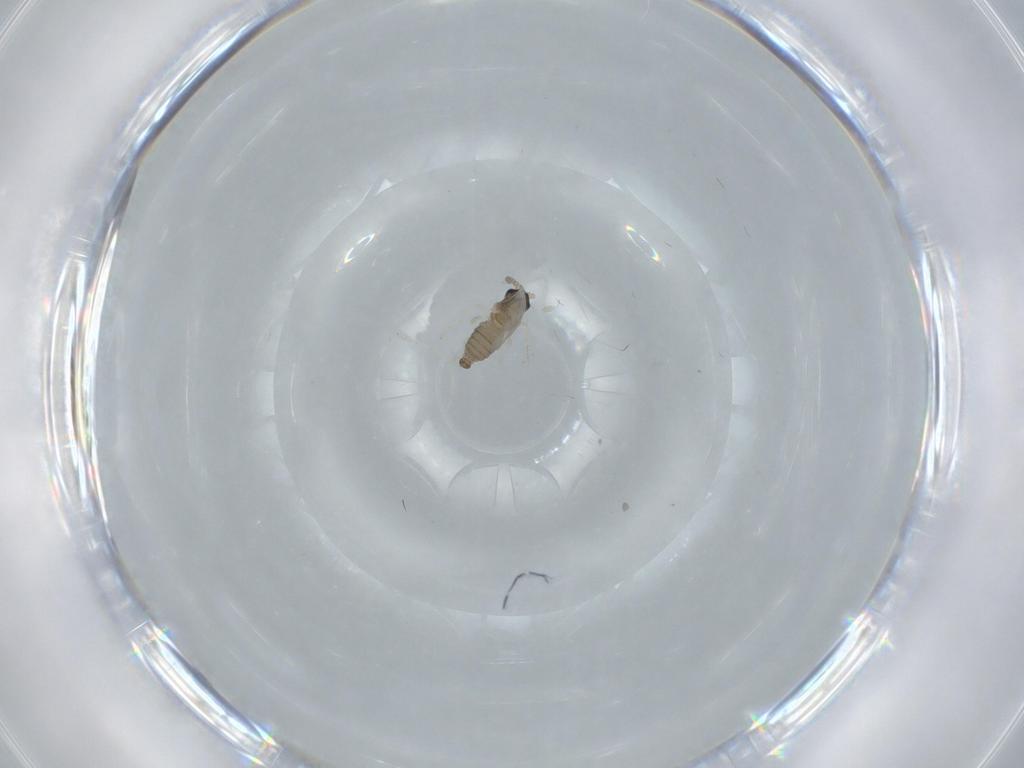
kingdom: Animalia
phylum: Arthropoda
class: Insecta
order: Diptera
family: Cecidomyiidae
